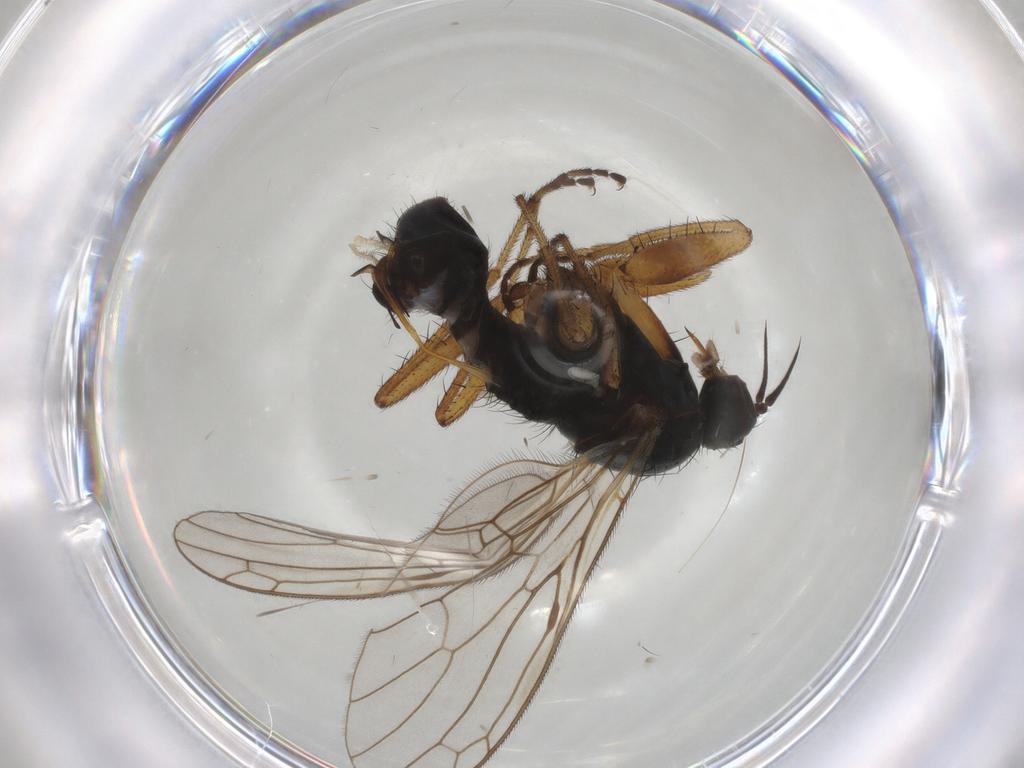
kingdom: Animalia
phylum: Arthropoda
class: Insecta
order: Diptera
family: Empididae
